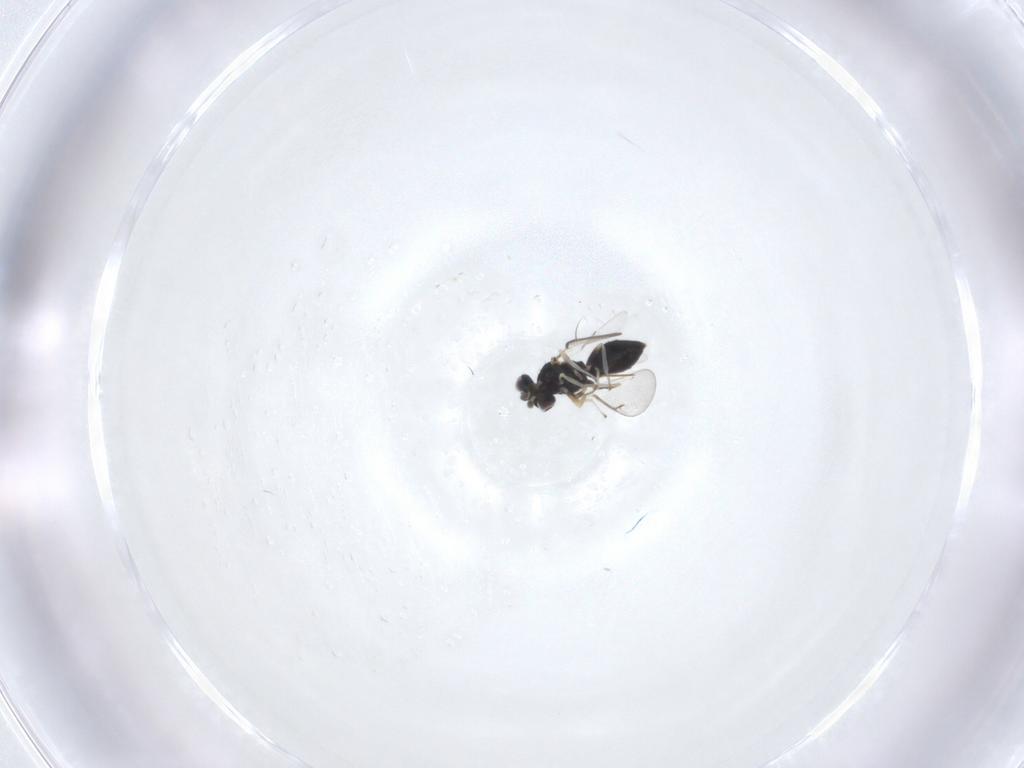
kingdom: Animalia
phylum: Arthropoda
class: Insecta
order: Hymenoptera
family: Eulophidae
